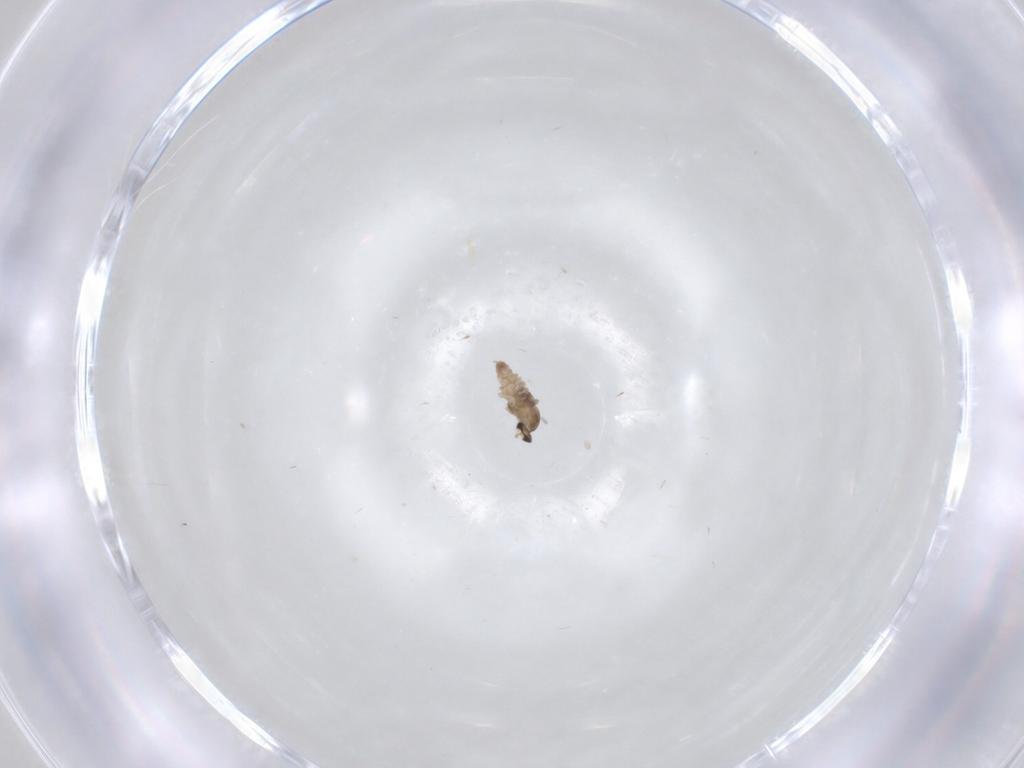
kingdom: Animalia
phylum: Arthropoda
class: Insecta
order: Diptera
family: Cecidomyiidae
